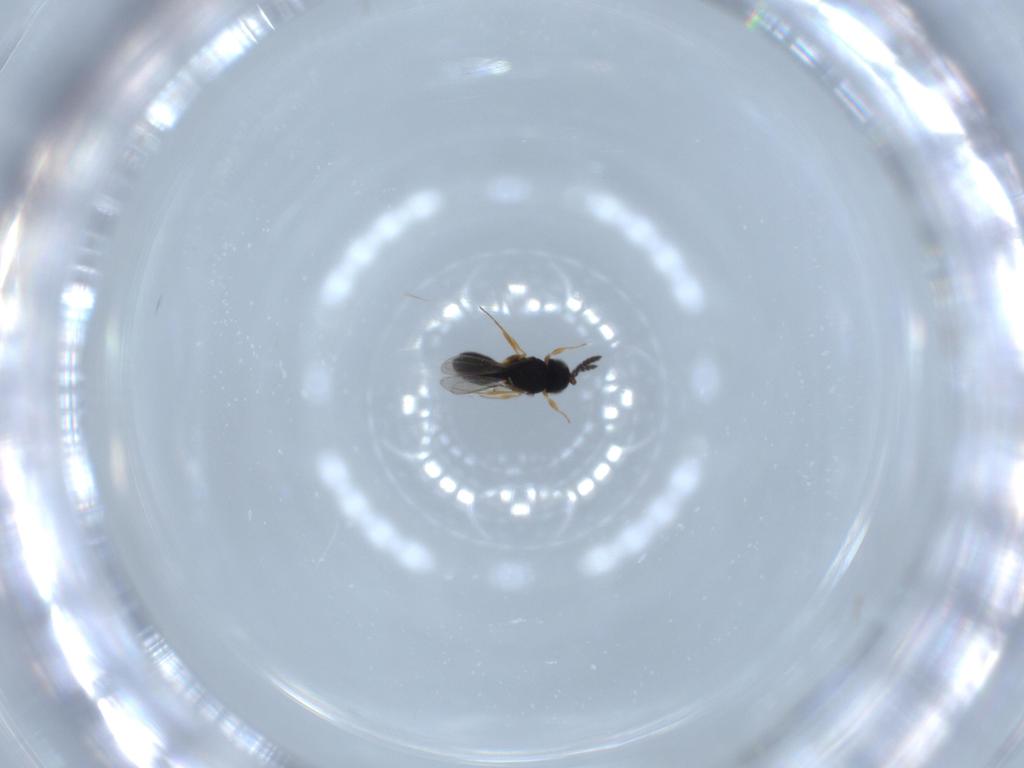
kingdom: Animalia
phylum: Arthropoda
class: Insecta
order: Hymenoptera
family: Scelionidae
